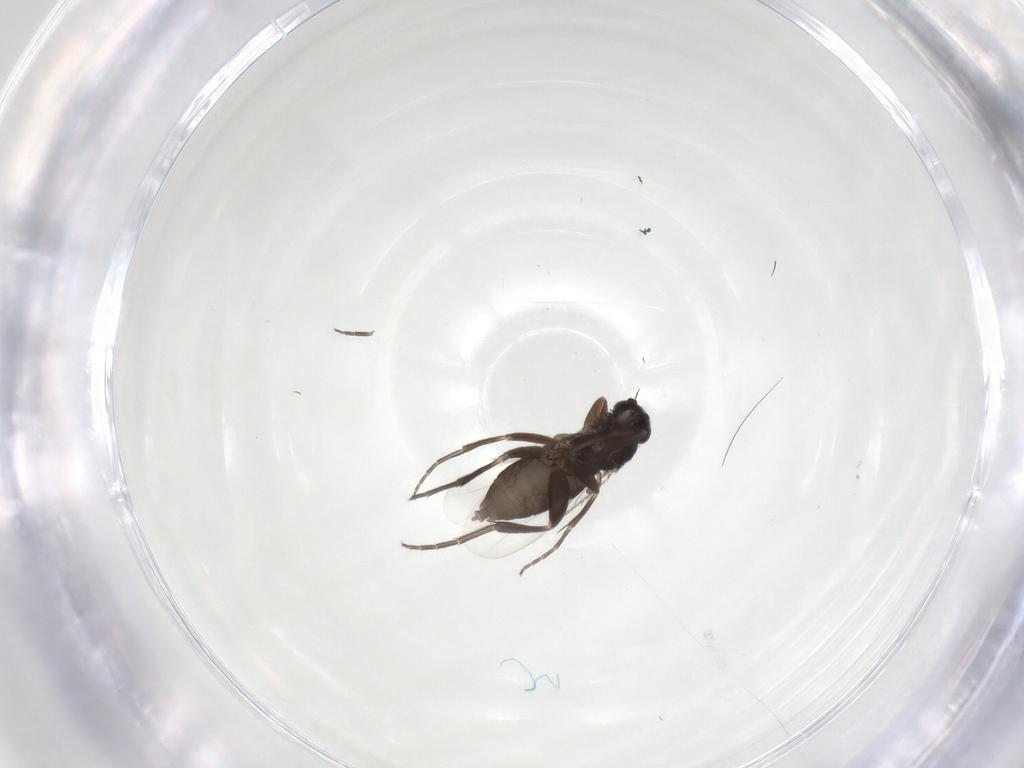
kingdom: Animalia
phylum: Arthropoda
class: Insecta
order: Diptera
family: Phoridae
